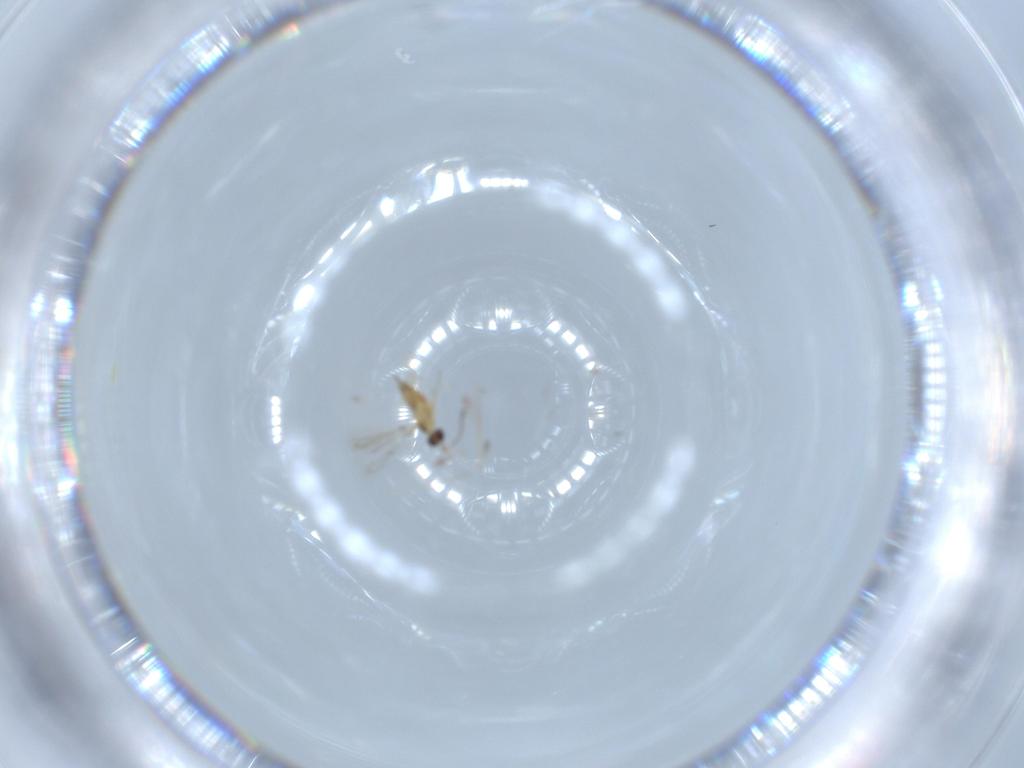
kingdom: Animalia
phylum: Arthropoda
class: Insecta
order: Hymenoptera
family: Mymaridae
